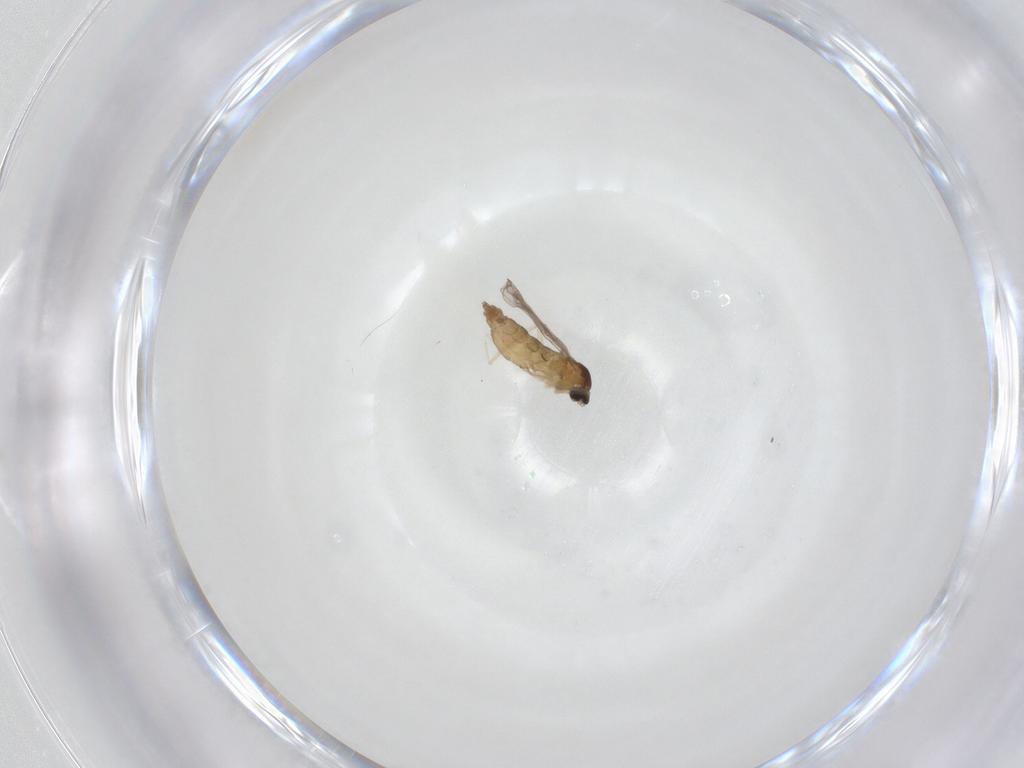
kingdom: Animalia
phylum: Arthropoda
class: Insecta
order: Diptera
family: Cecidomyiidae
